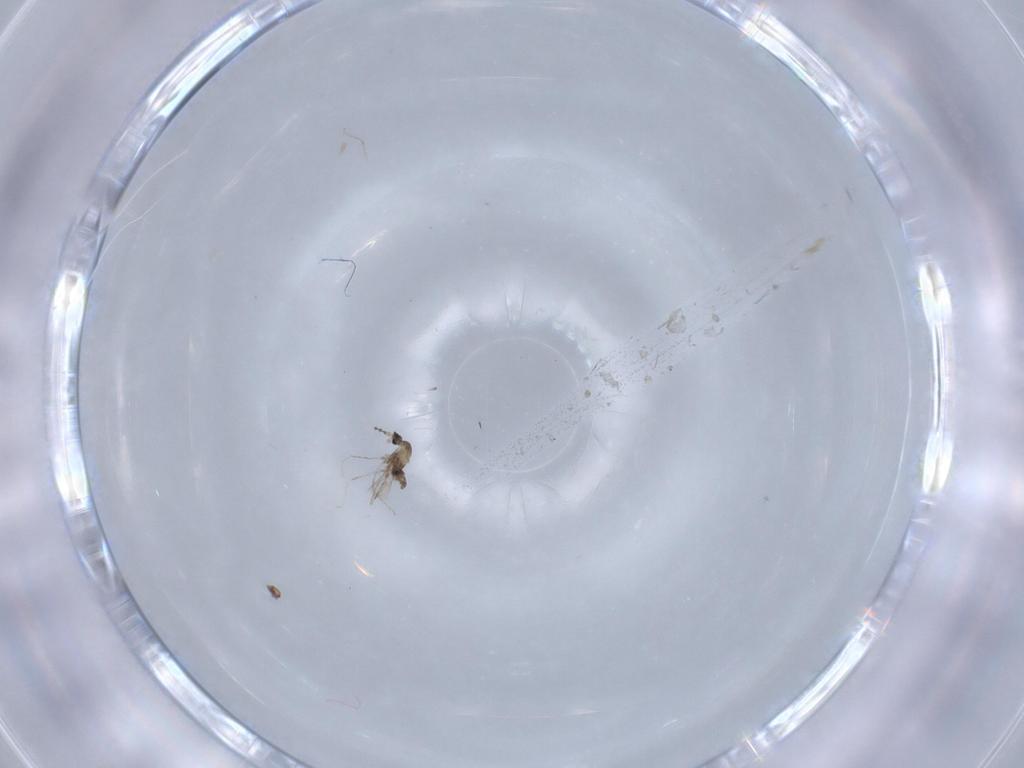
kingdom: Animalia
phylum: Arthropoda
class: Insecta
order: Diptera
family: Cecidomyiidae
